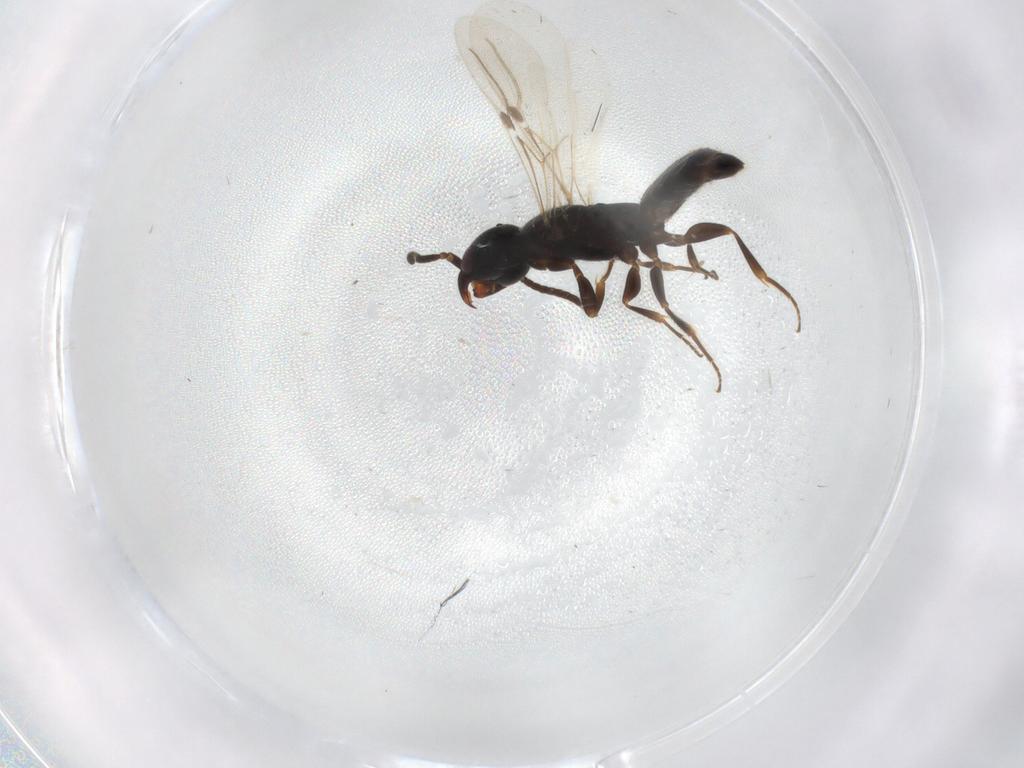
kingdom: Animalia
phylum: Arthropoda
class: Insecta
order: Hymenoptera
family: Bethylidae
